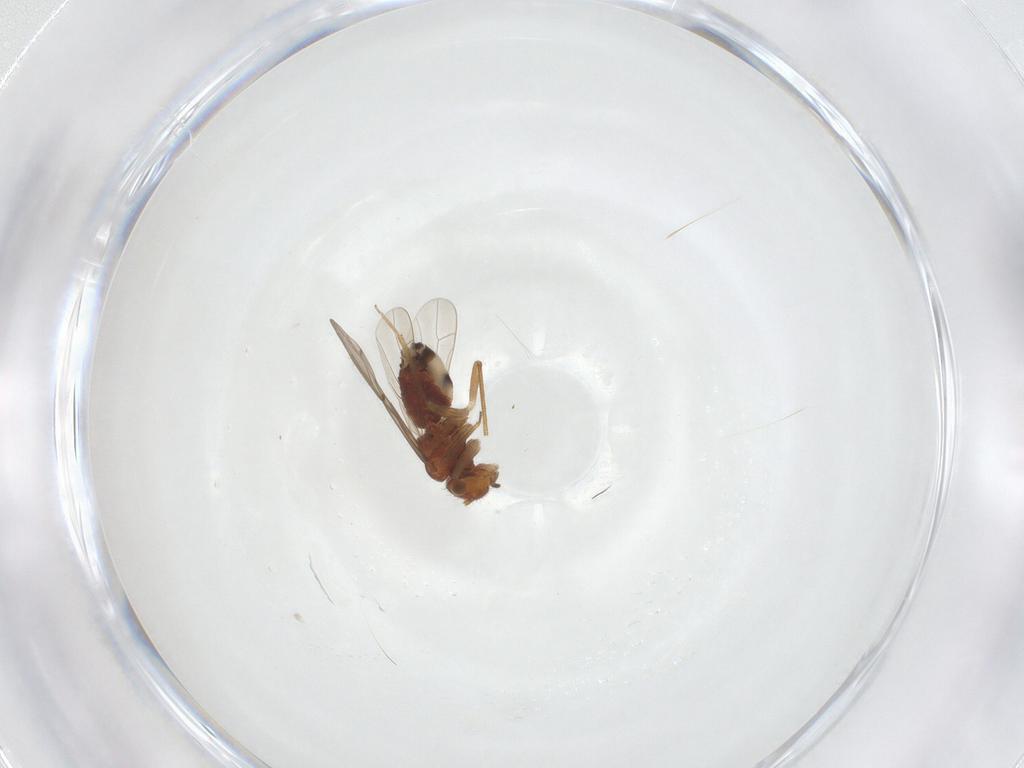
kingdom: Animalia
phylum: Arthropoda
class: Insecta
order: Psocodea
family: Ectopsocidae
